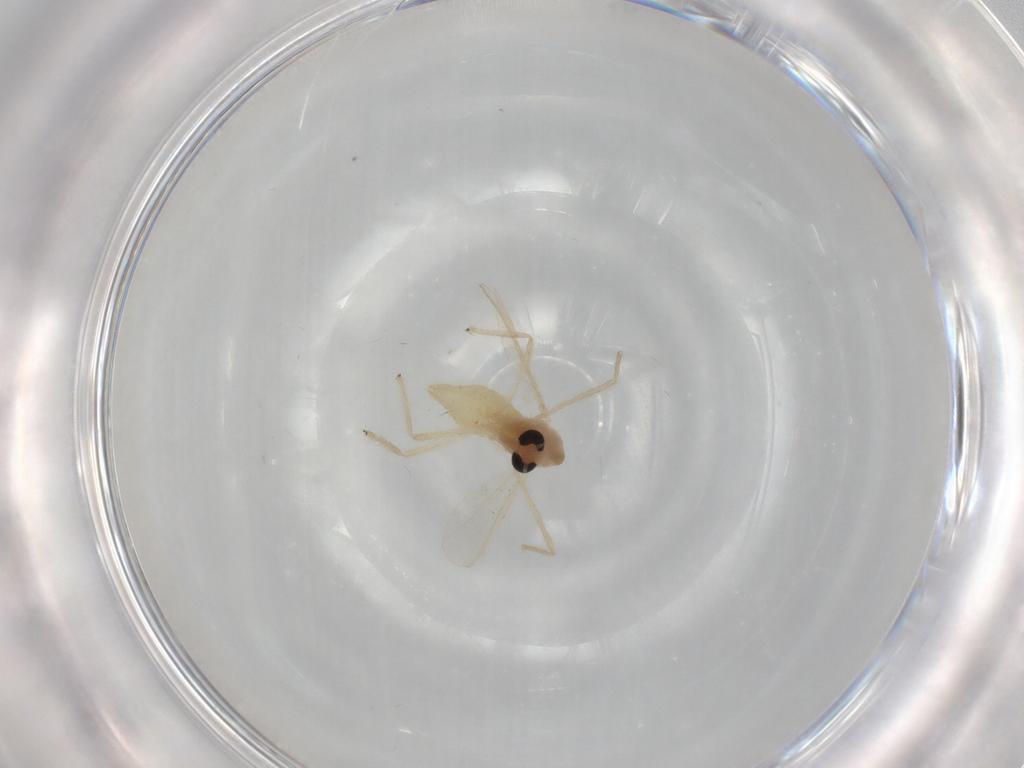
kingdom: Animalia
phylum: Arthropoda
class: Insecta
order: Diptera
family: Chironomidae
